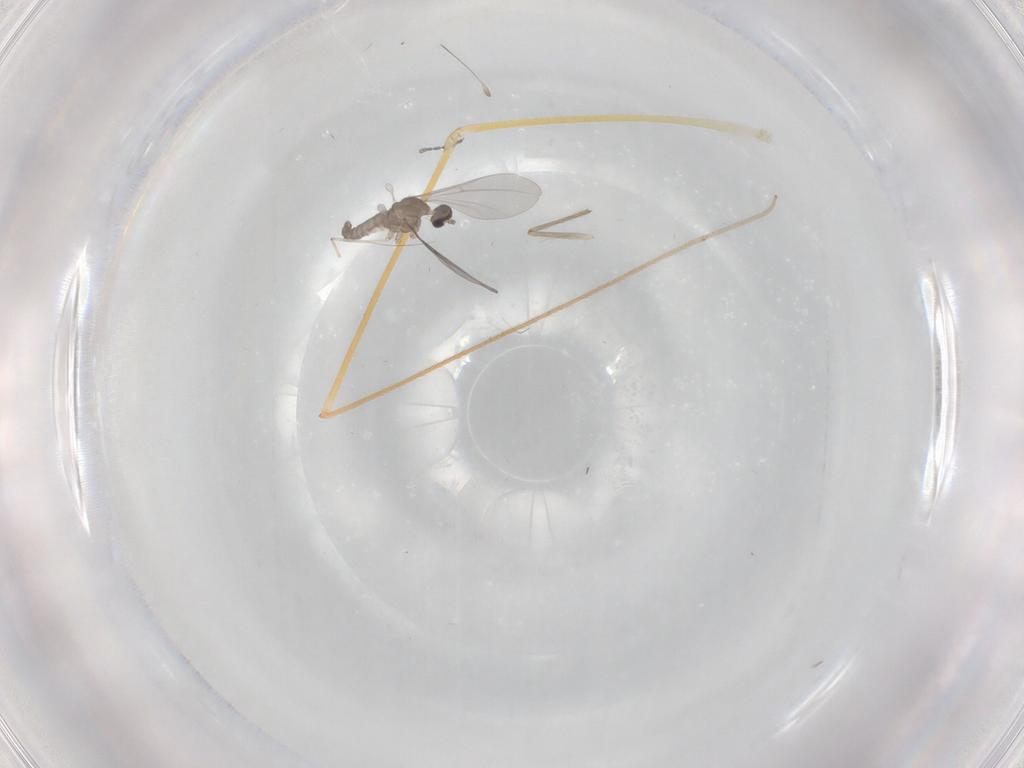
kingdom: Animalia
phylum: Arthropoda
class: Insecta
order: Diptera
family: Cecidomyiidae
